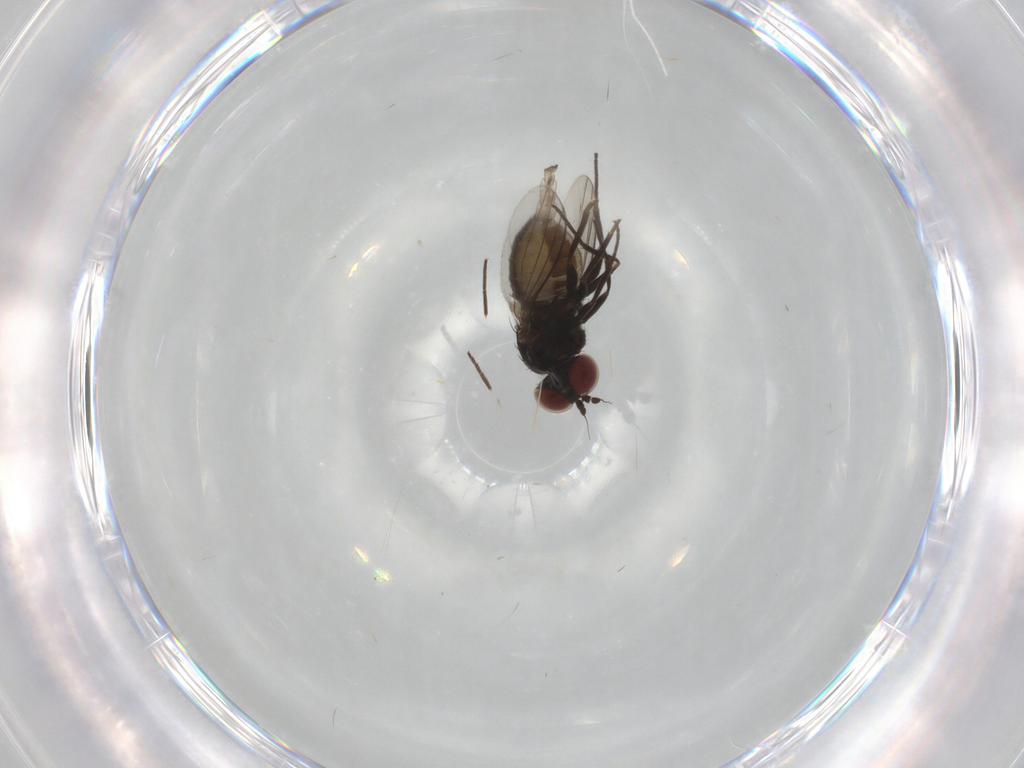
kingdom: Animalia
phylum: Arthropoda
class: Insecta
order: Diptera
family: Dolichopodidae
